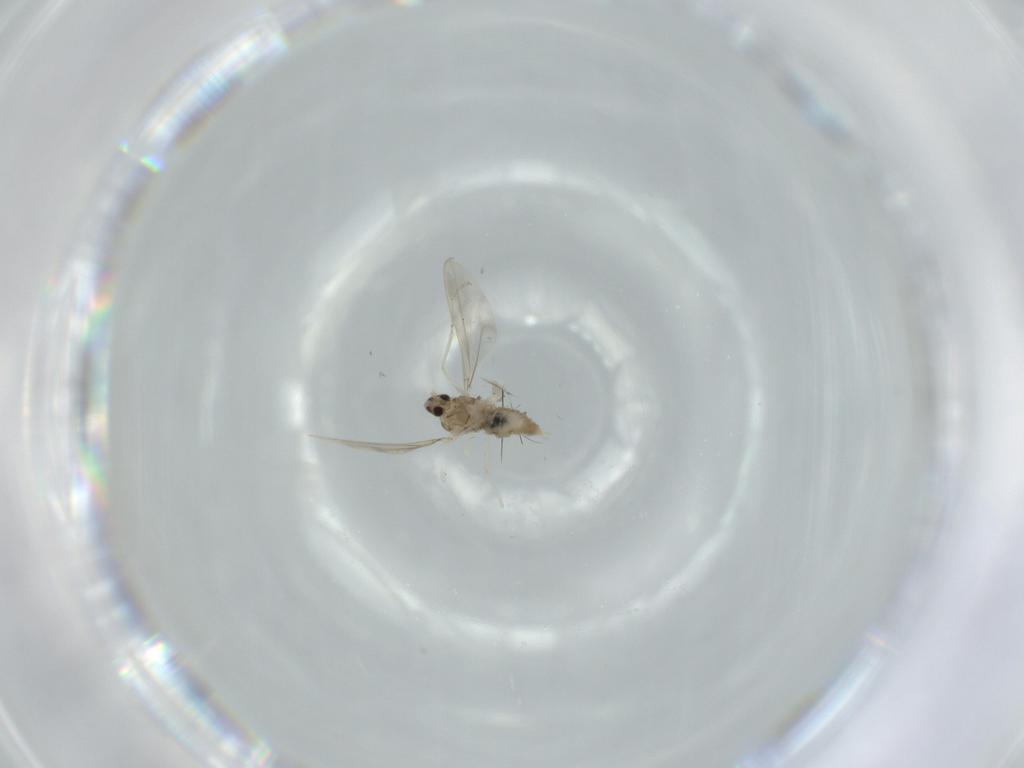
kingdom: Animalia
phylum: Arthropoda
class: Insecta
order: Diptera
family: Cecidomyiidae
